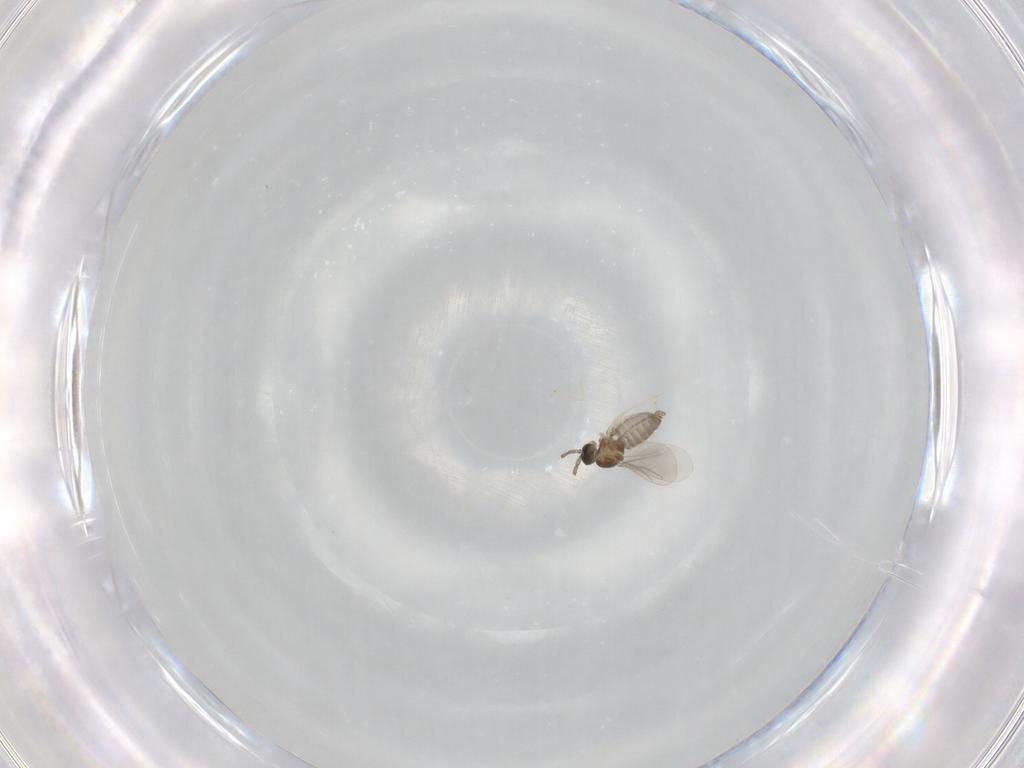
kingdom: Animalia
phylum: Arthropoda
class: Insecta
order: Diptera
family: Cecidomyiidae
